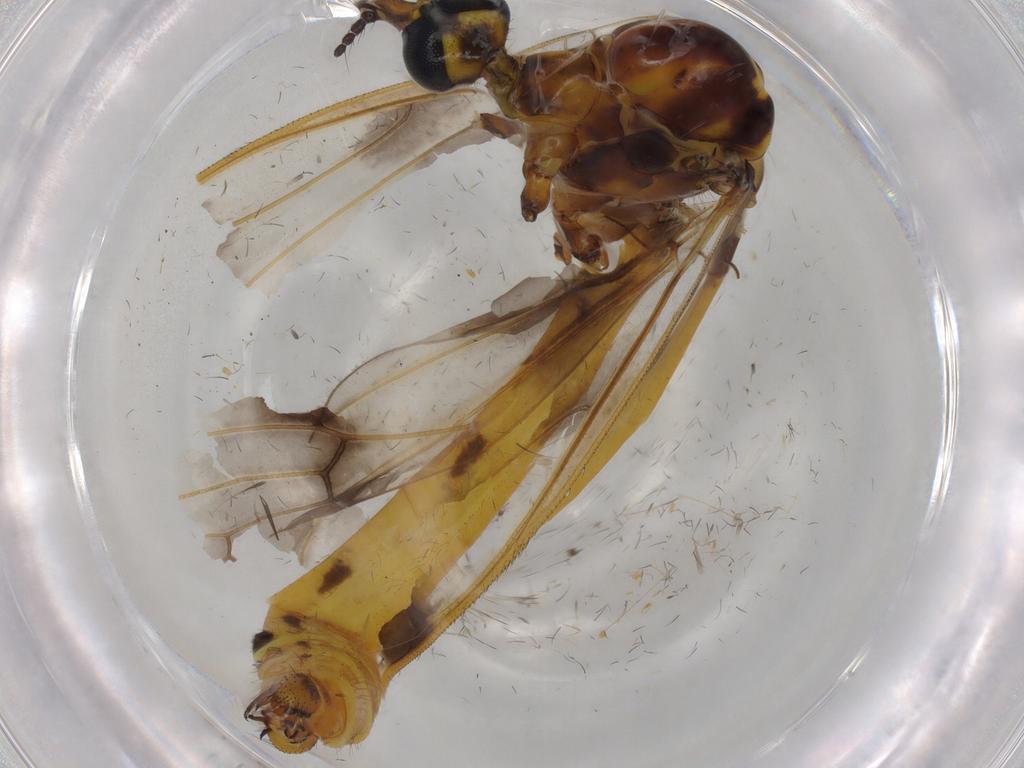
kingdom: Animalia
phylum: Arthropoda
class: Insecta
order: Diptera
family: Limoniidae
